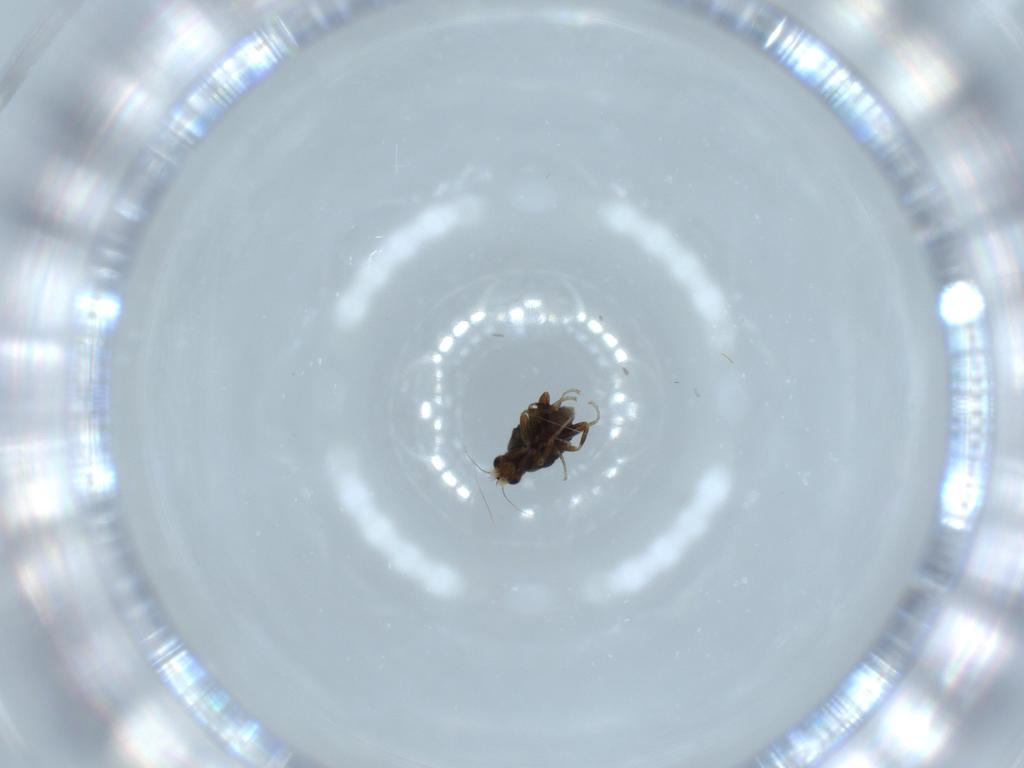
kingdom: Animalia
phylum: Arthropoda
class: Insecta
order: Diptera
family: Phoridae
